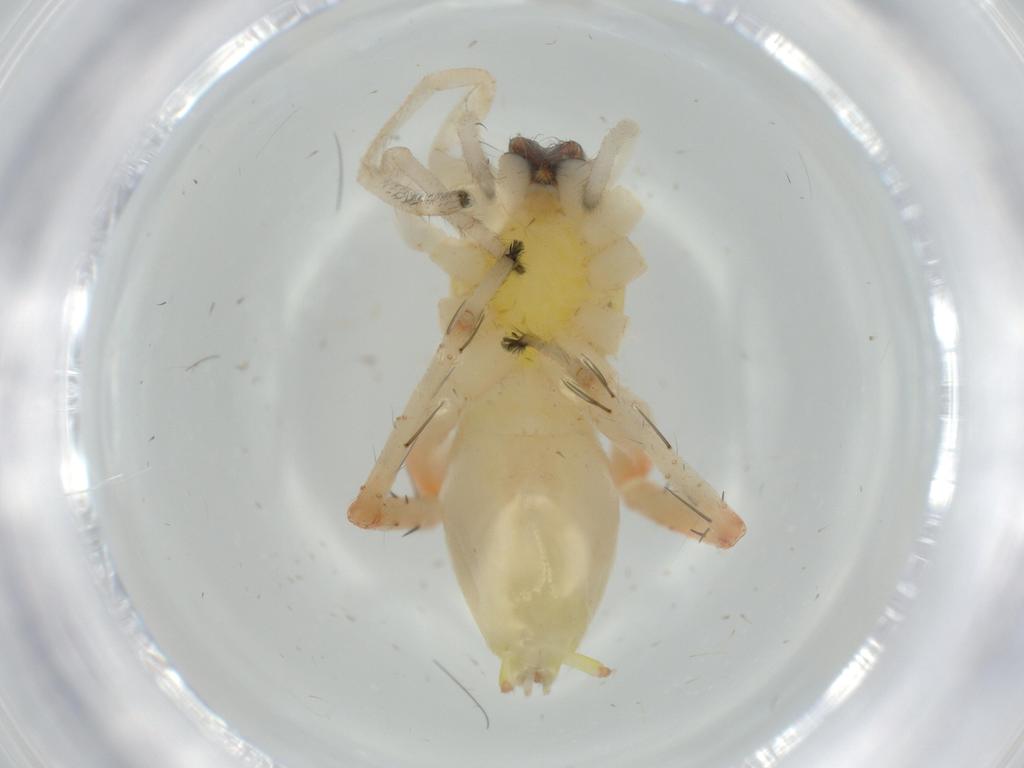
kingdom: Animalia
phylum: Arthropoda
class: Arachnida
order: Araneae
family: Anyphaenidae
